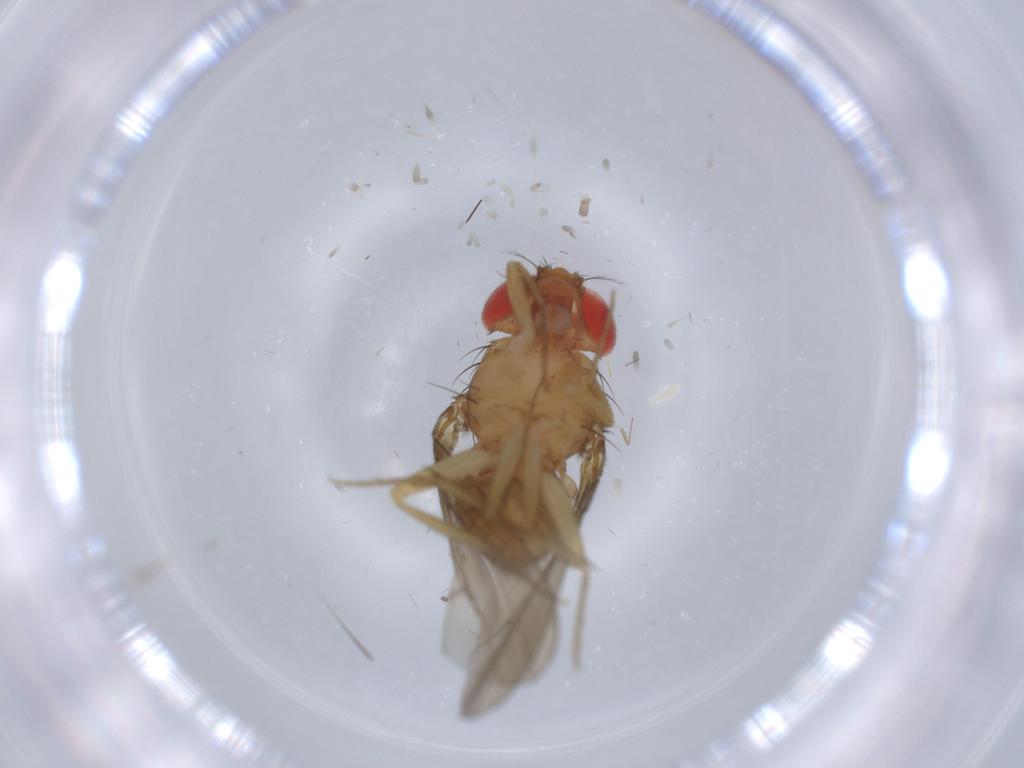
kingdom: Animalia
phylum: Arthropoda
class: Insecta
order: Diptera
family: Drosophilidae
